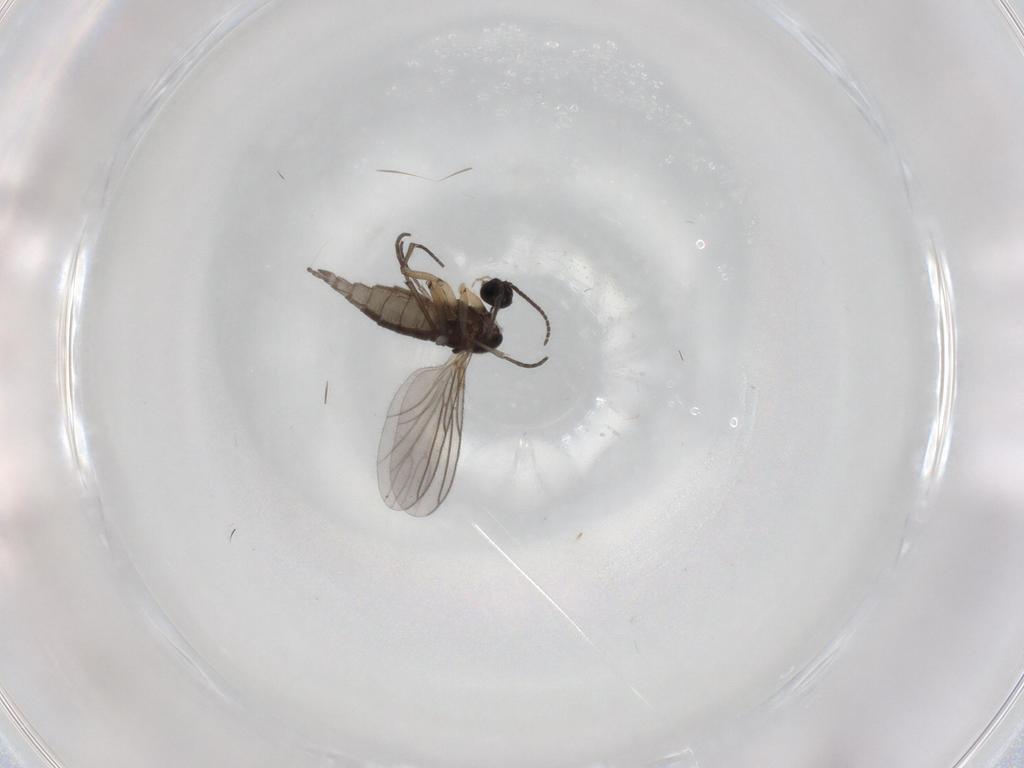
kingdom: Animalia
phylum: Arthropoda
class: Insecta
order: Diptera
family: Sciaridae
